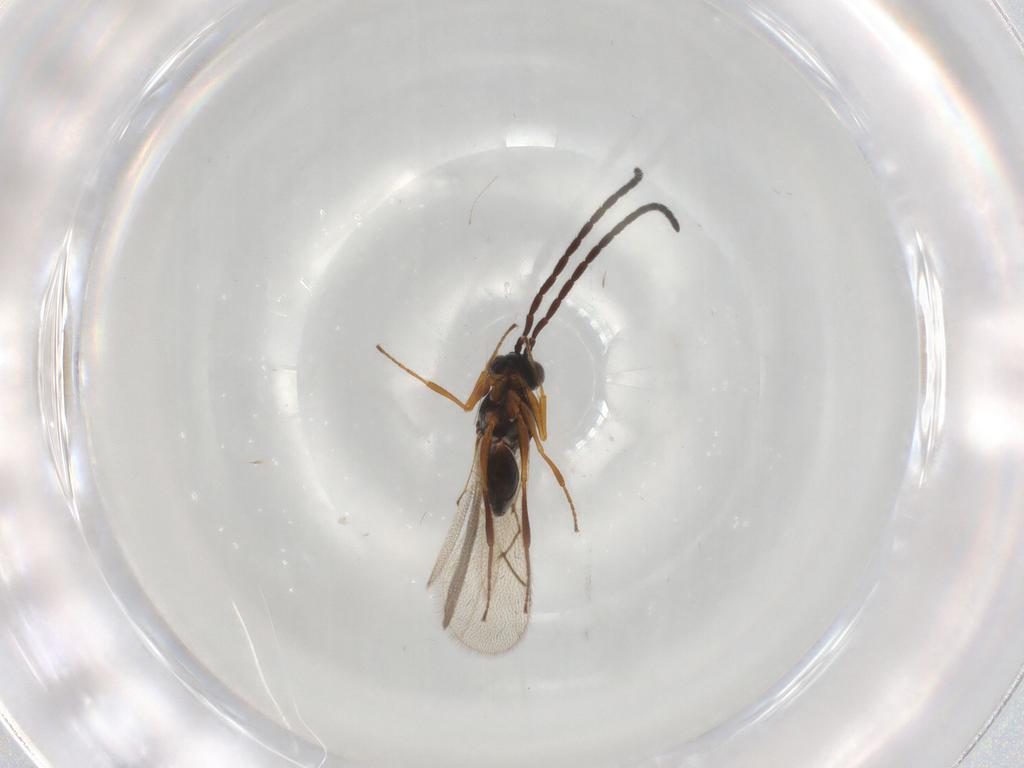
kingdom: Animalia
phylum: Arthropoda
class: Insecta
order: Hymenoptera
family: Figitidae
